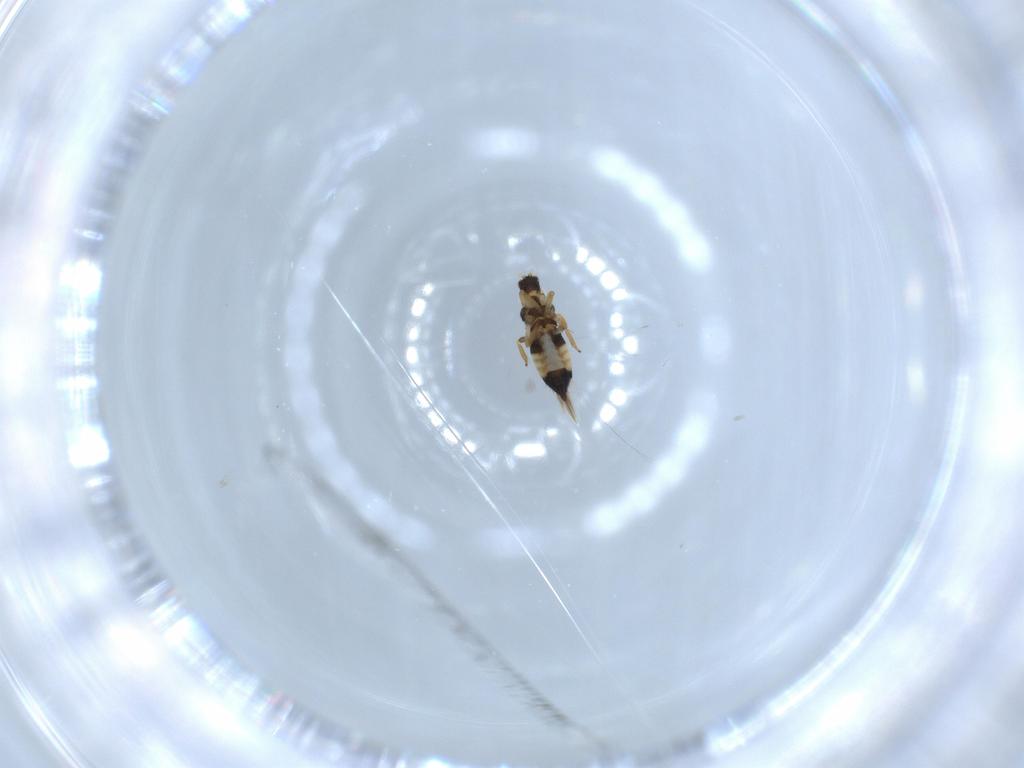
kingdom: Animalia
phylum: Arthropoda
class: Insecta
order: Thysanoptera
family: Thripidae
